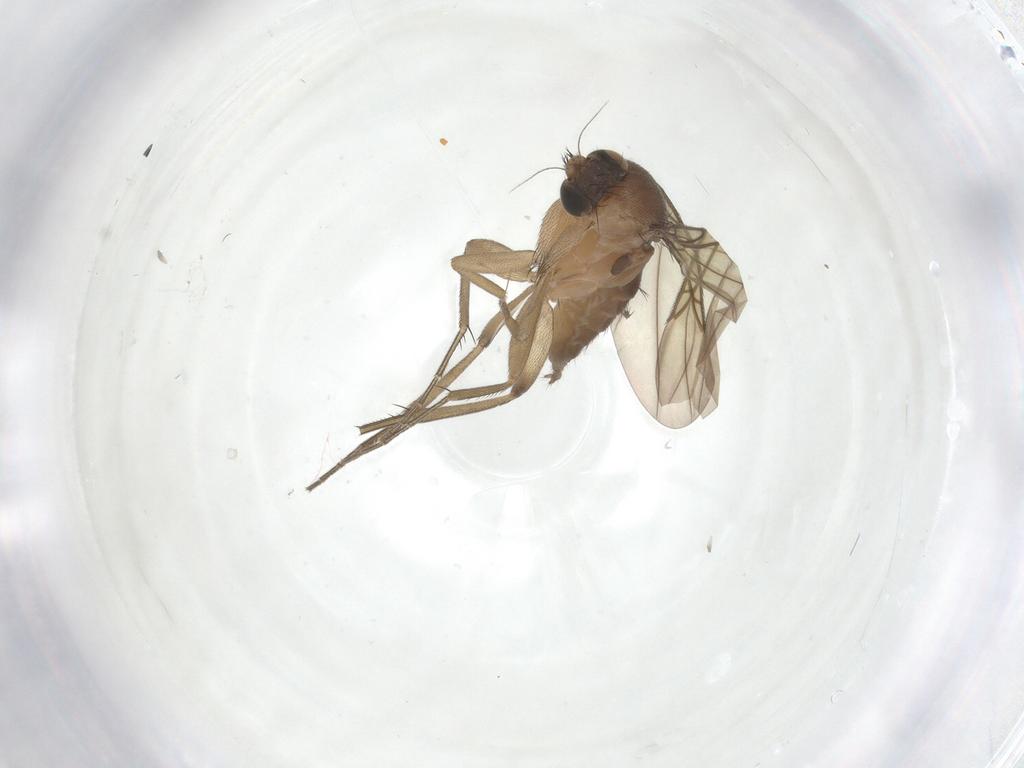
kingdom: Animalia
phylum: Arthropoda
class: Insecta
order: Diptera
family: Phoridae
